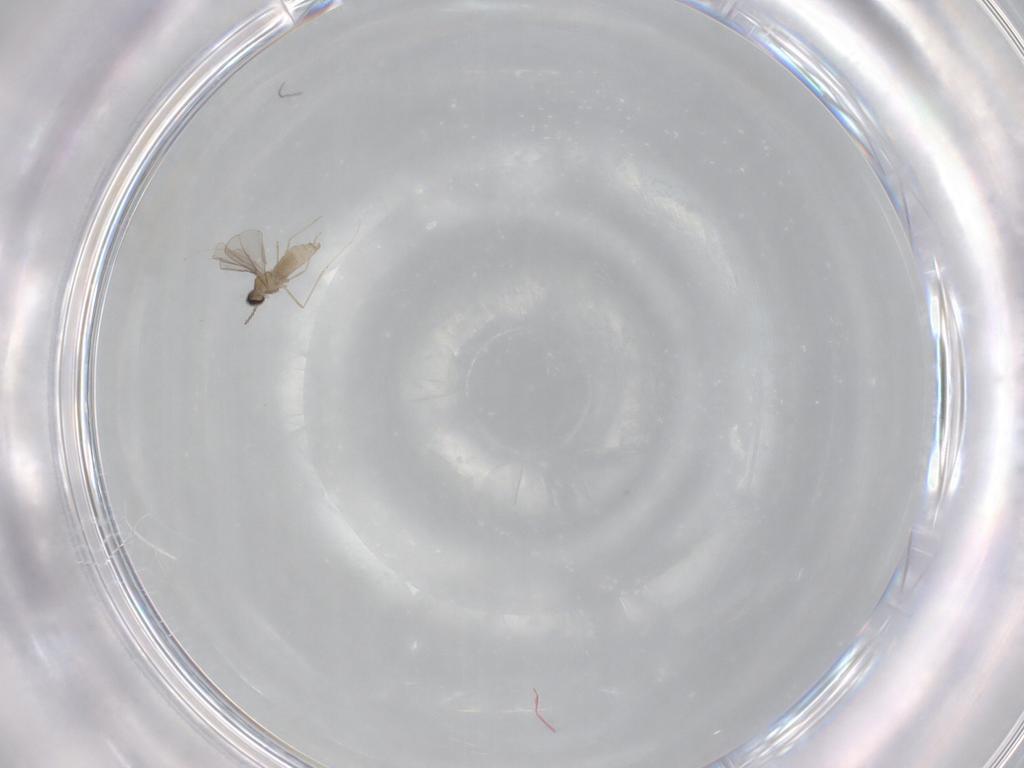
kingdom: Animalia
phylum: Arthropoda
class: Insecta
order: Diptera
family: Cecidomyiidae
